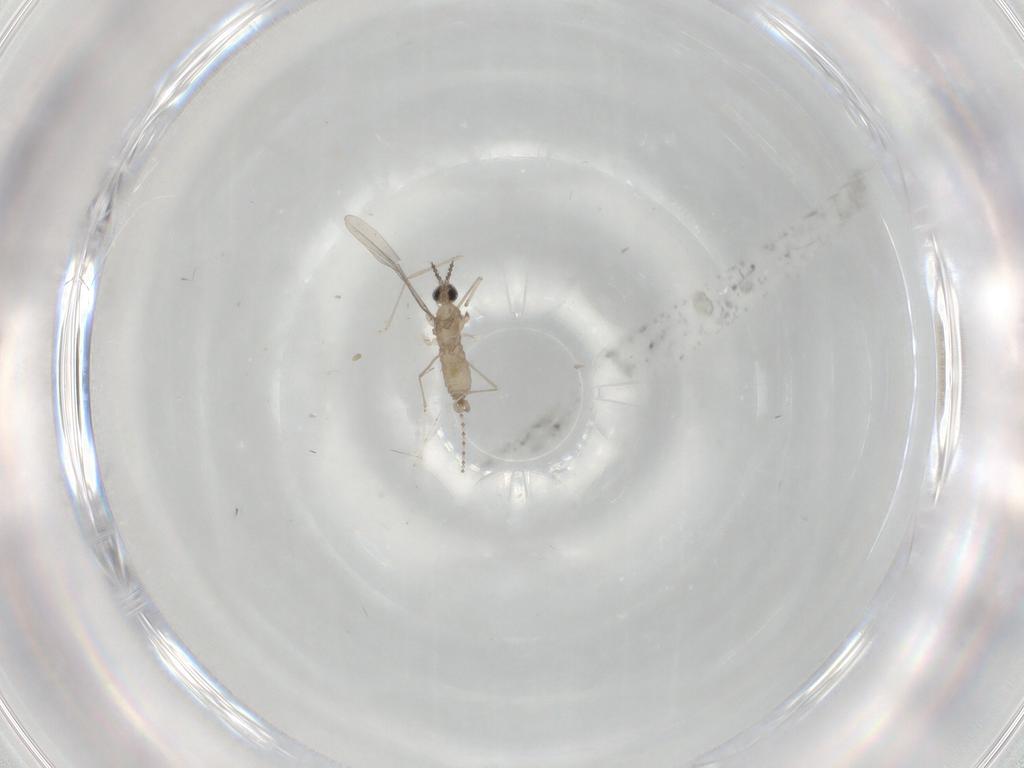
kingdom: Animalia
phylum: Arthropoda
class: Insecta
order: Diptera
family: Cecidomyiidae
